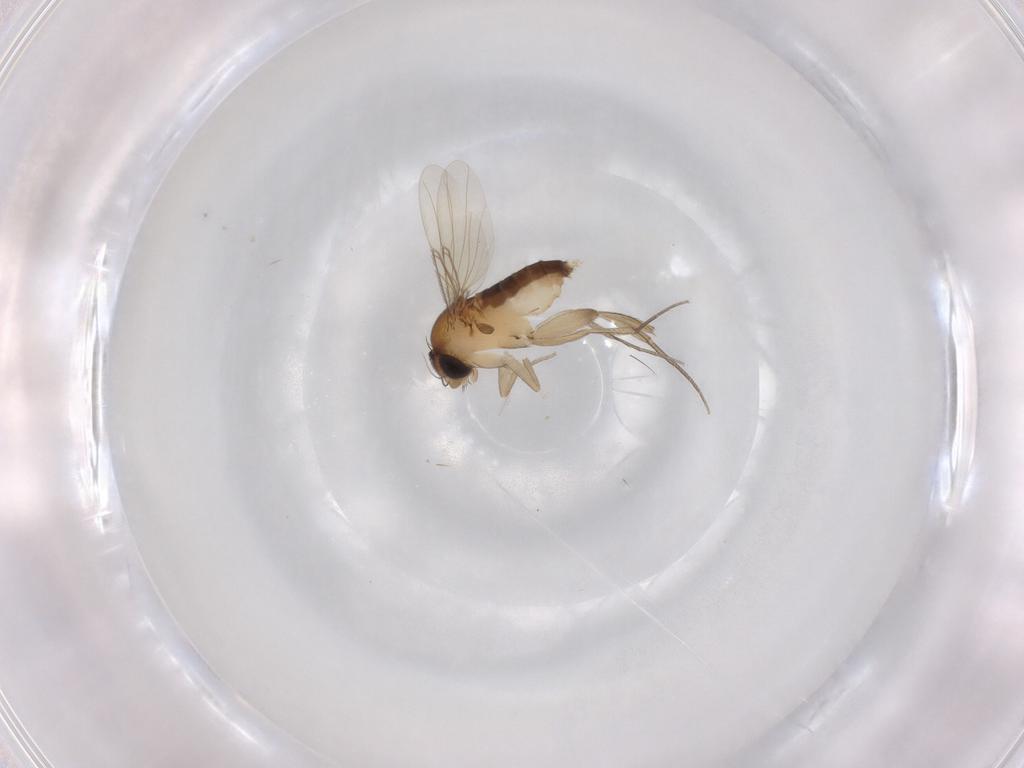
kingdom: Animalia
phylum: Arthropoda
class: Insecta
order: Diptera
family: Phoridae
